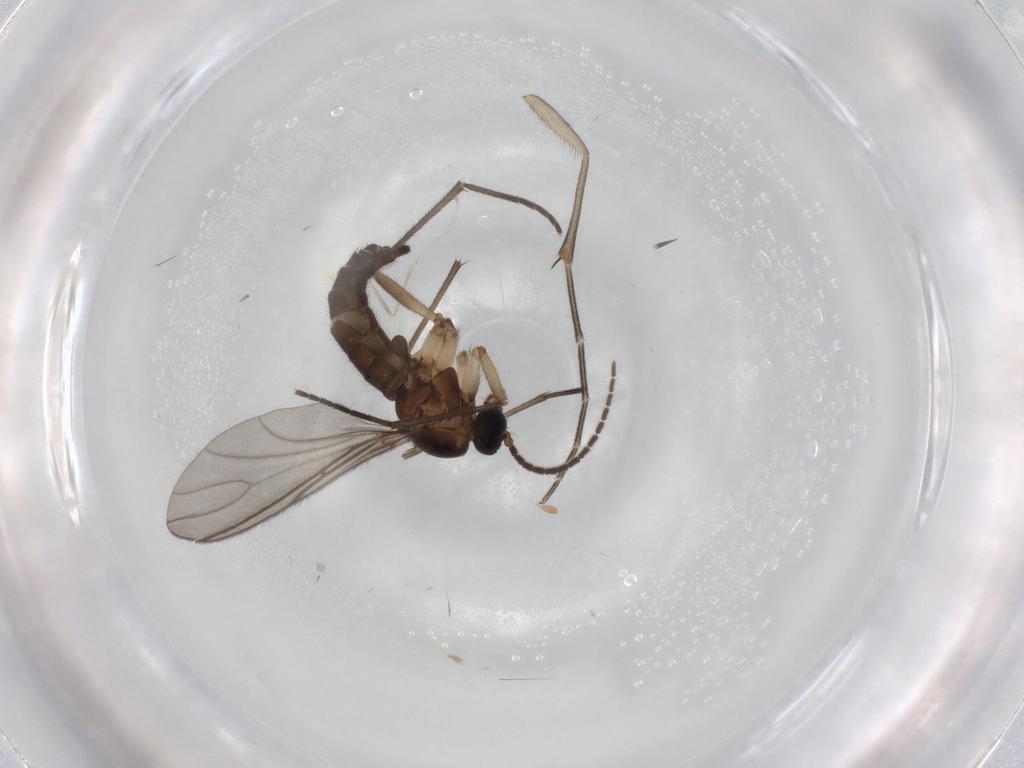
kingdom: Animalia
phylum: Arthropoda
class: Insecta
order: Diptera
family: Sciaridae
